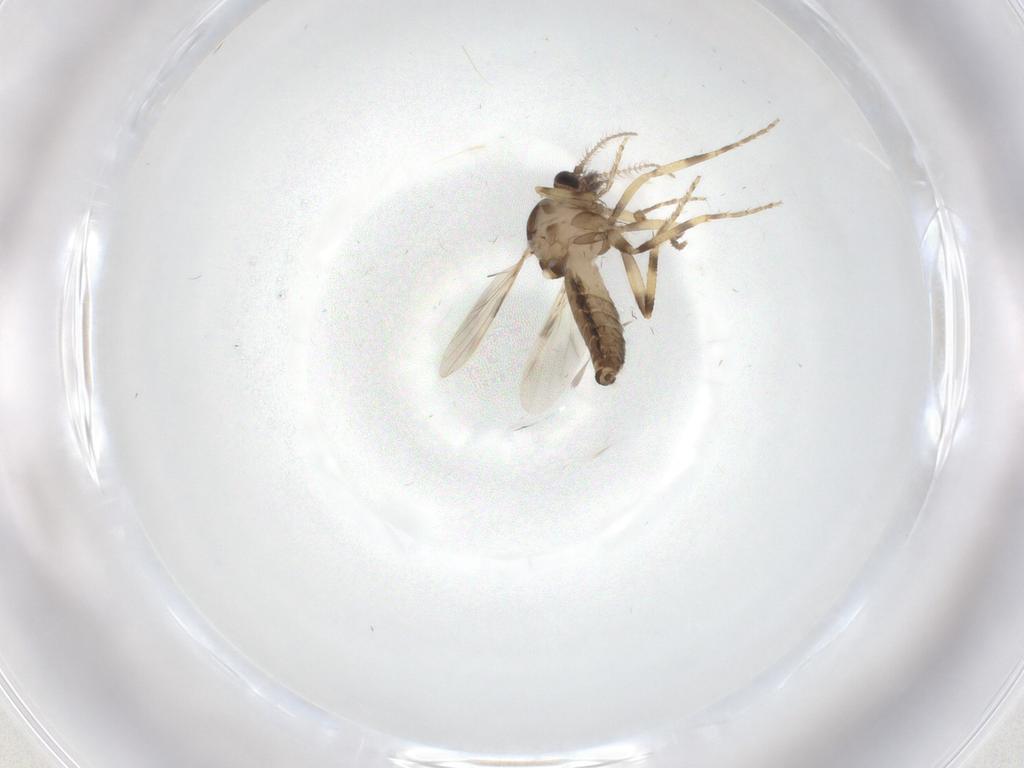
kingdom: Animalia
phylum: Arthropoda
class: Insecta
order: Diptera
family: Ceratopogonidae
